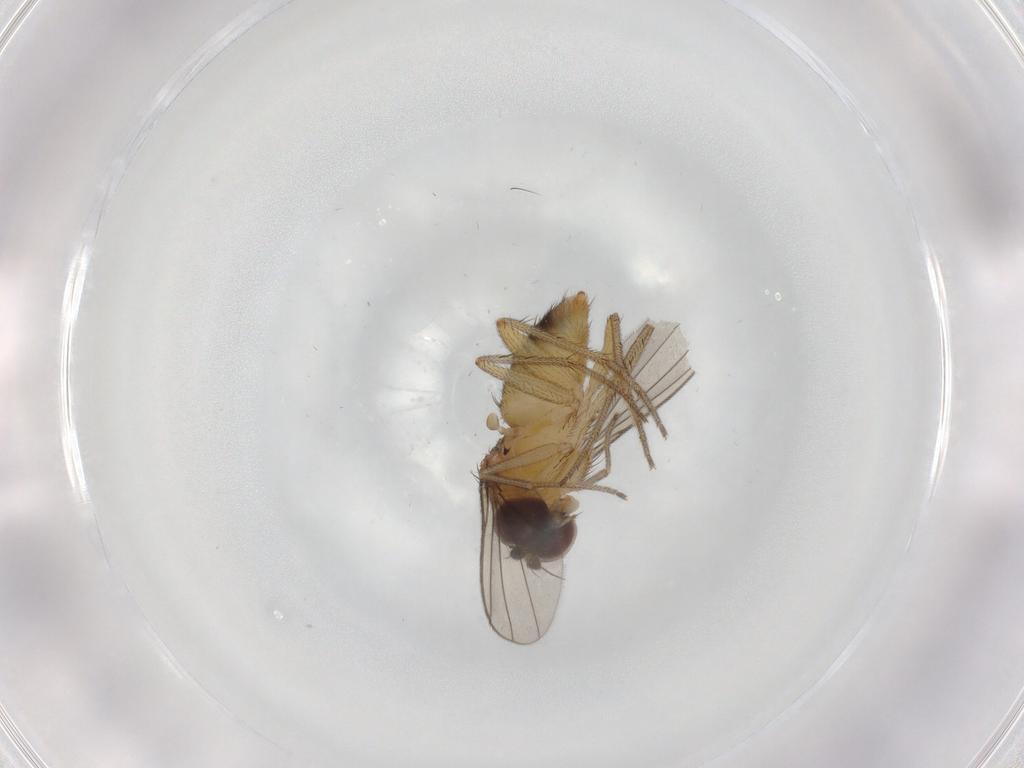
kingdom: Animalia
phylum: Arthropoda
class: Insecta
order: Diptera
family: Dolichopodidae
